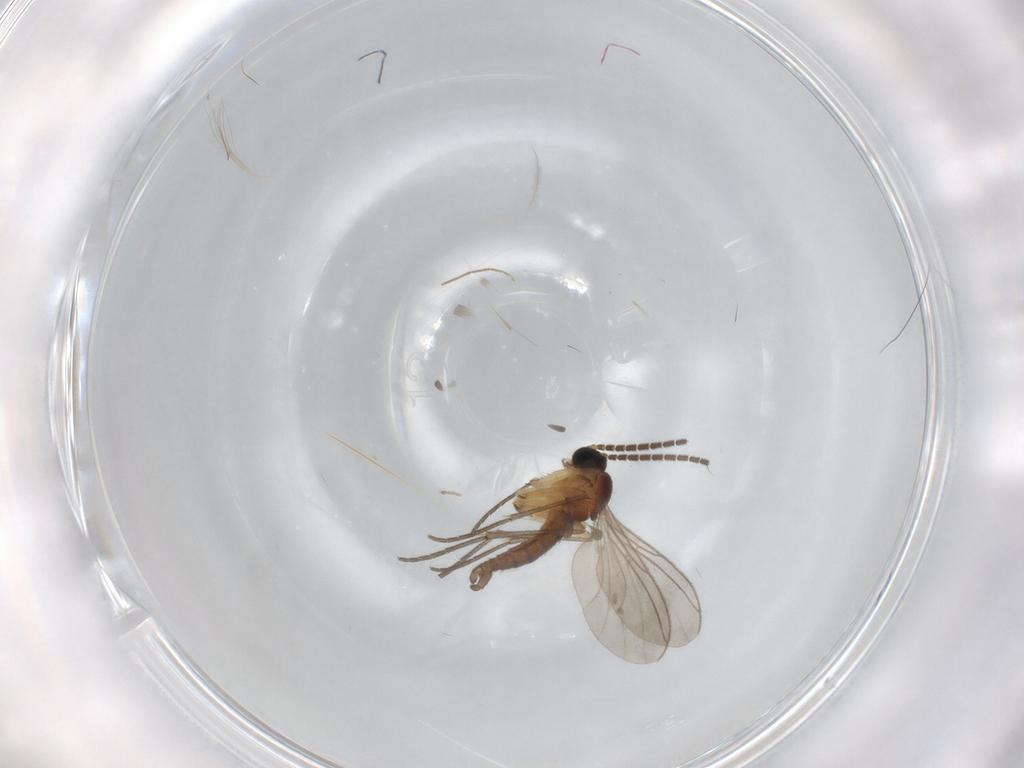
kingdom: Animalia
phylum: Arthropoda
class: Insecta
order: Diptera
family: Sciaridae
